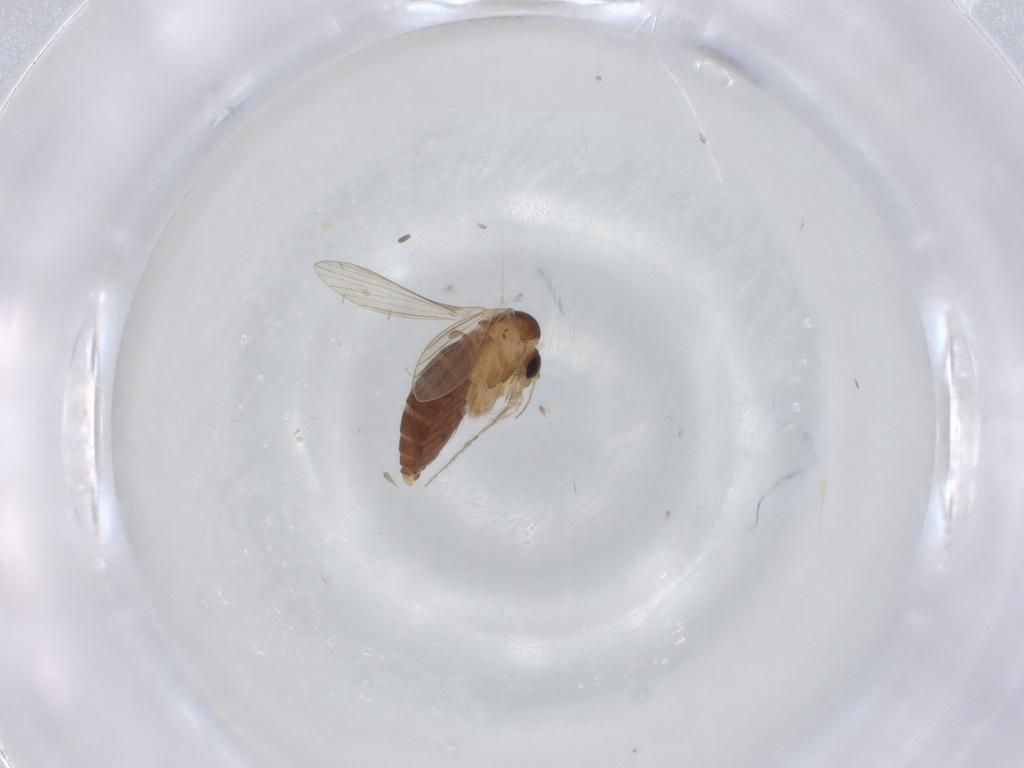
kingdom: Animalia
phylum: Arthropoda
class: Insecta
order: Diptera
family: Psychodidae
